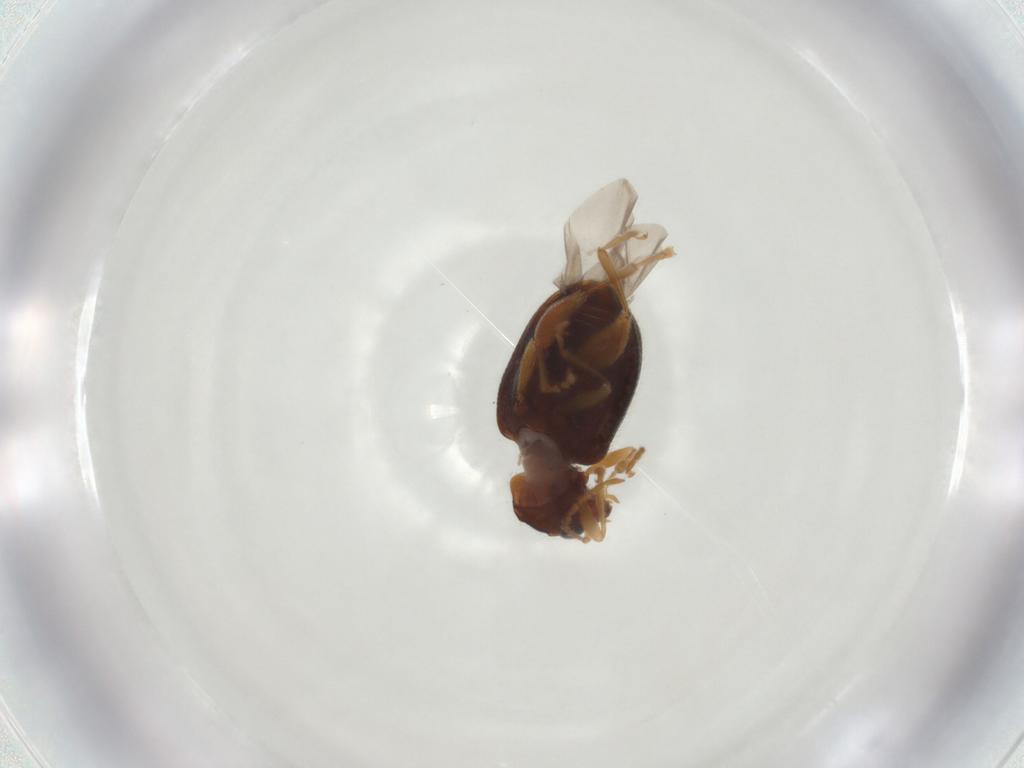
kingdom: Animalia
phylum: Arthropoda
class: Insecta
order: Coleoptera
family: Chrysomelidae
